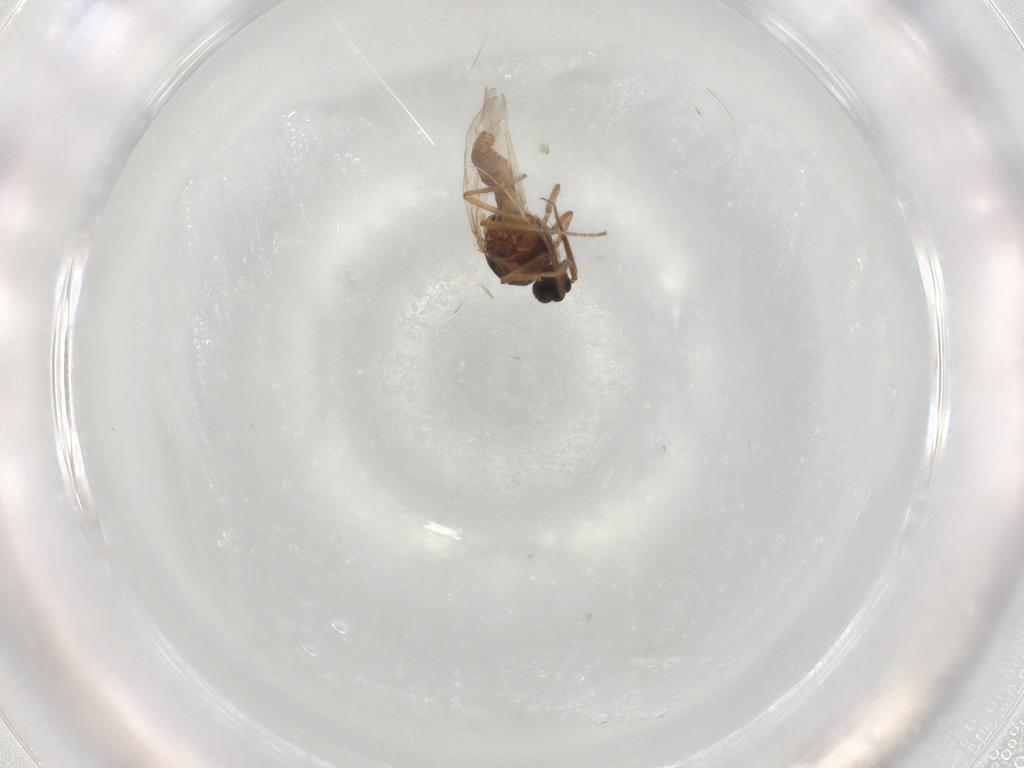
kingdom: Animalia
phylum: Arthropoda
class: Insecta
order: Diptera
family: Ceratopogonidae
